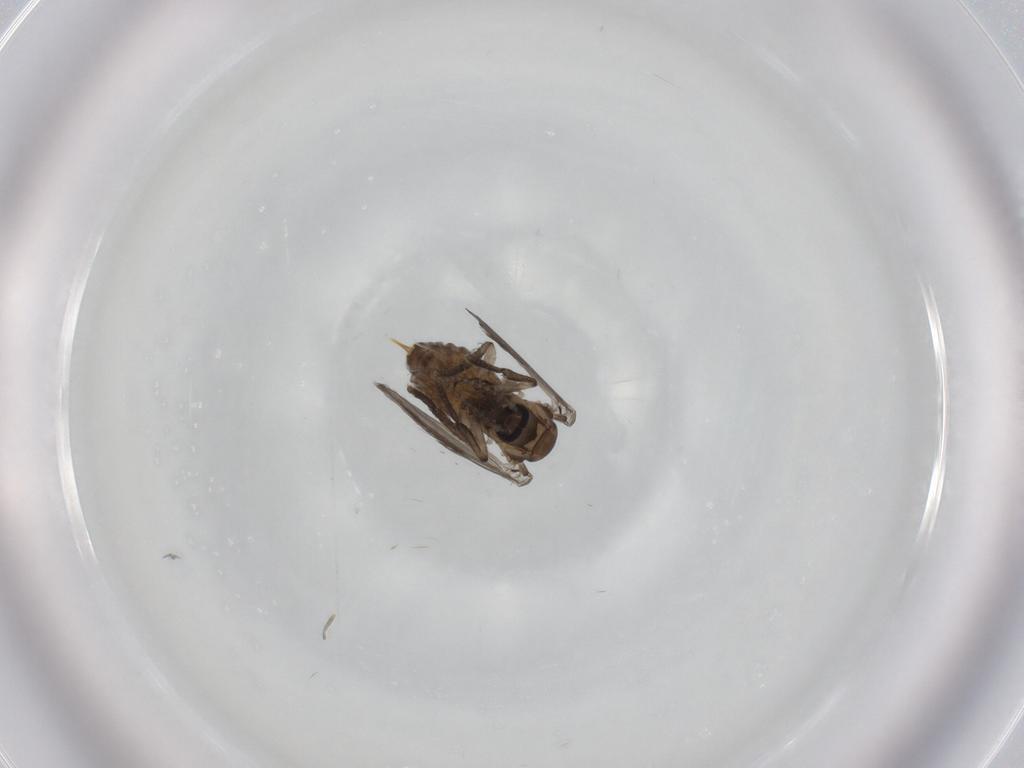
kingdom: Animalia
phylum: Arthropoda
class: Insecta
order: Diptera
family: Psychodidae
